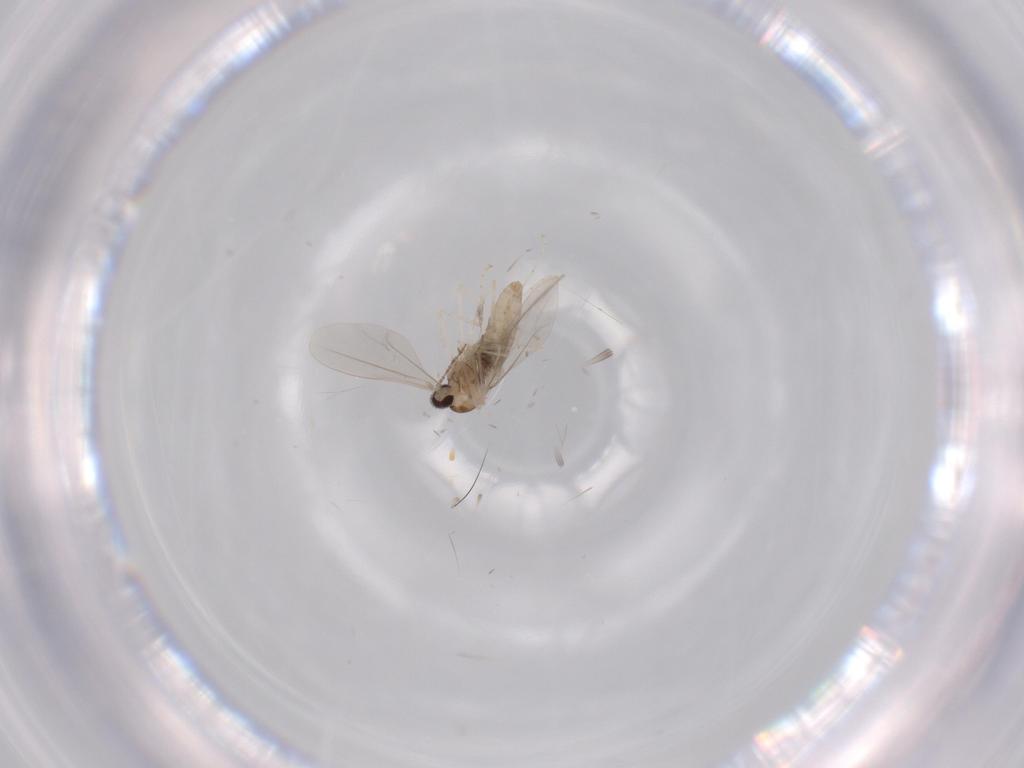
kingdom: Animalia
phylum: Arthropoda
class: Insecta
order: Diptera
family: Cecidomyiidae
